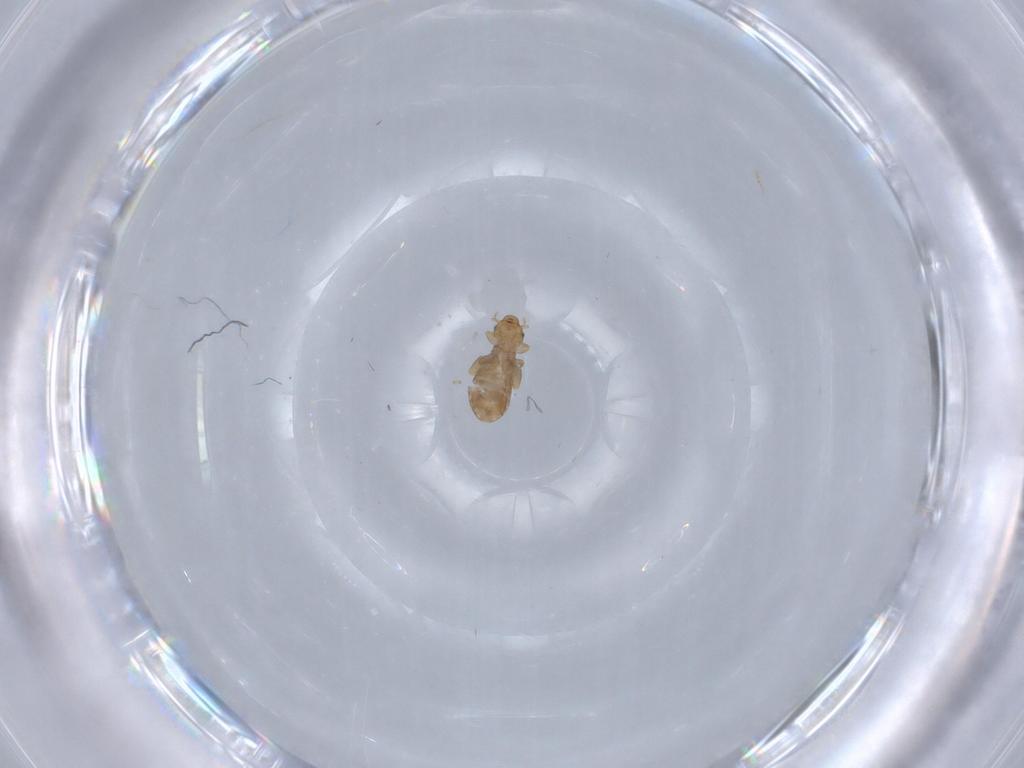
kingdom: Animalia
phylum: Arthropoda
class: Insecta
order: Psocodea
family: Liposcelididae
